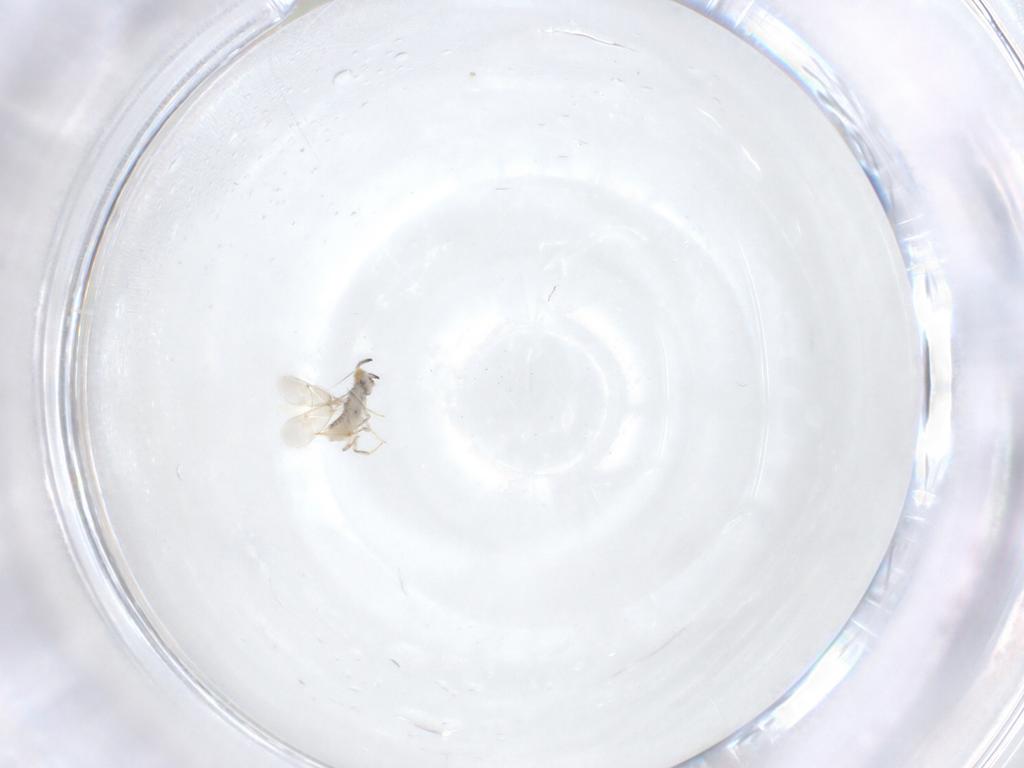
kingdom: Animalia
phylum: Arthropoda
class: Insecta
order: Diptera
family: Cecidomyiidae
